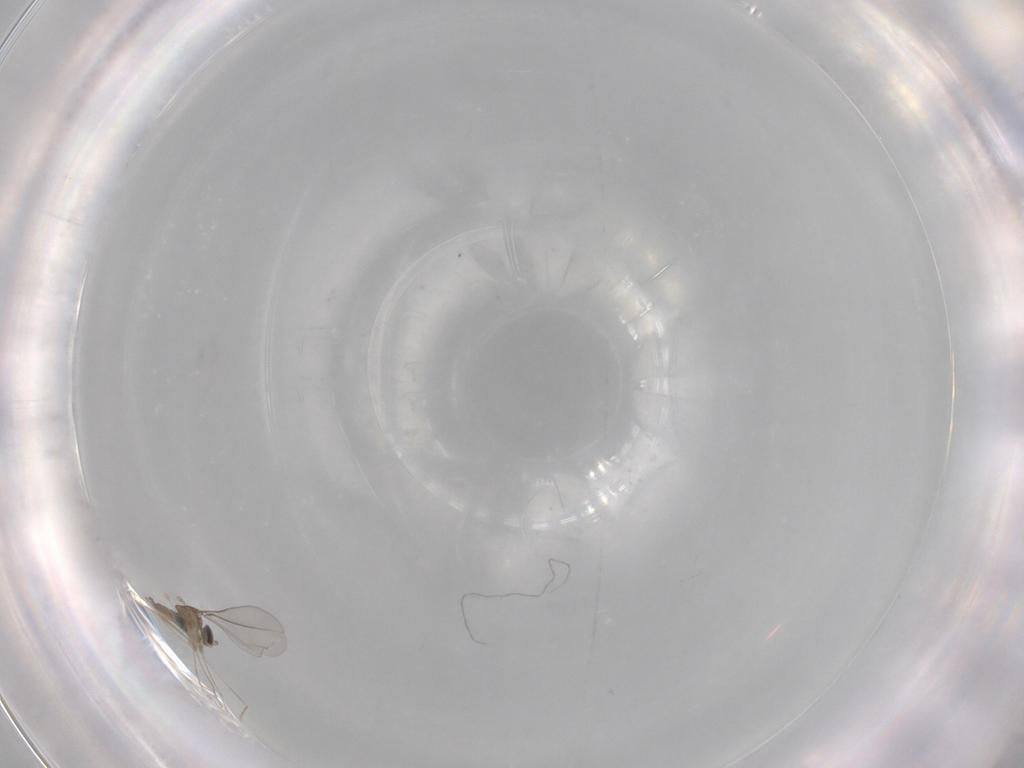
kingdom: Animalia
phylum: Arthropoda
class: Insecta
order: Diptera
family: Cecidomyiidae
